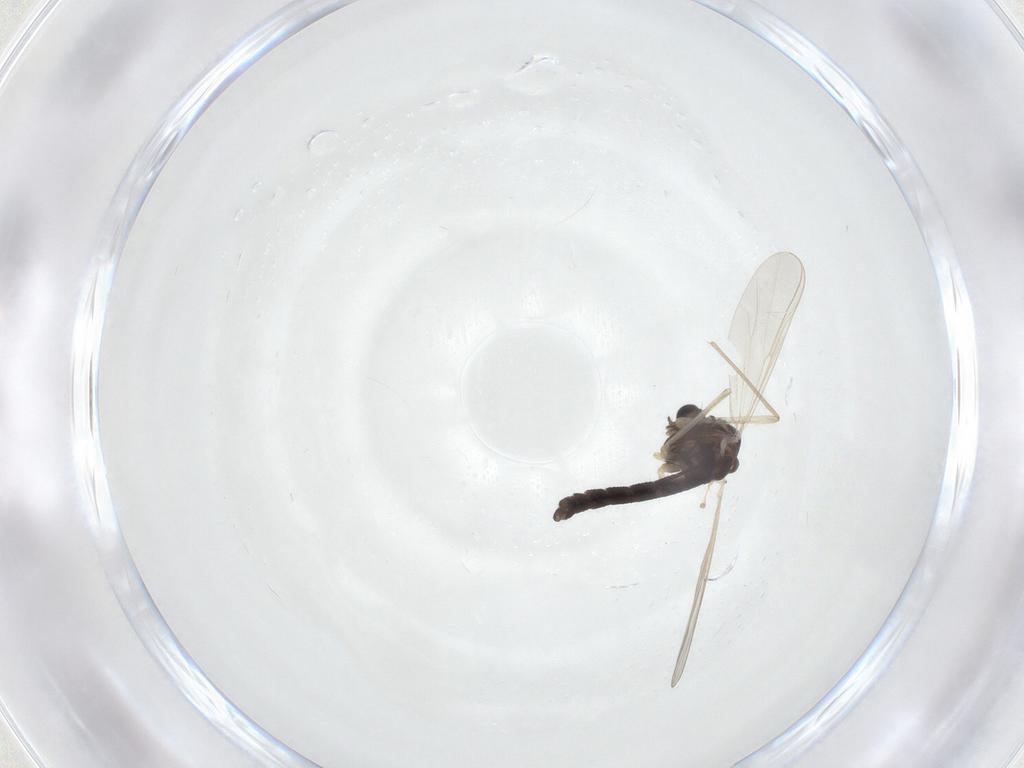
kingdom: Animalia
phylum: Arthropoda
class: Insecta
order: Diptera
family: Chironomidae
